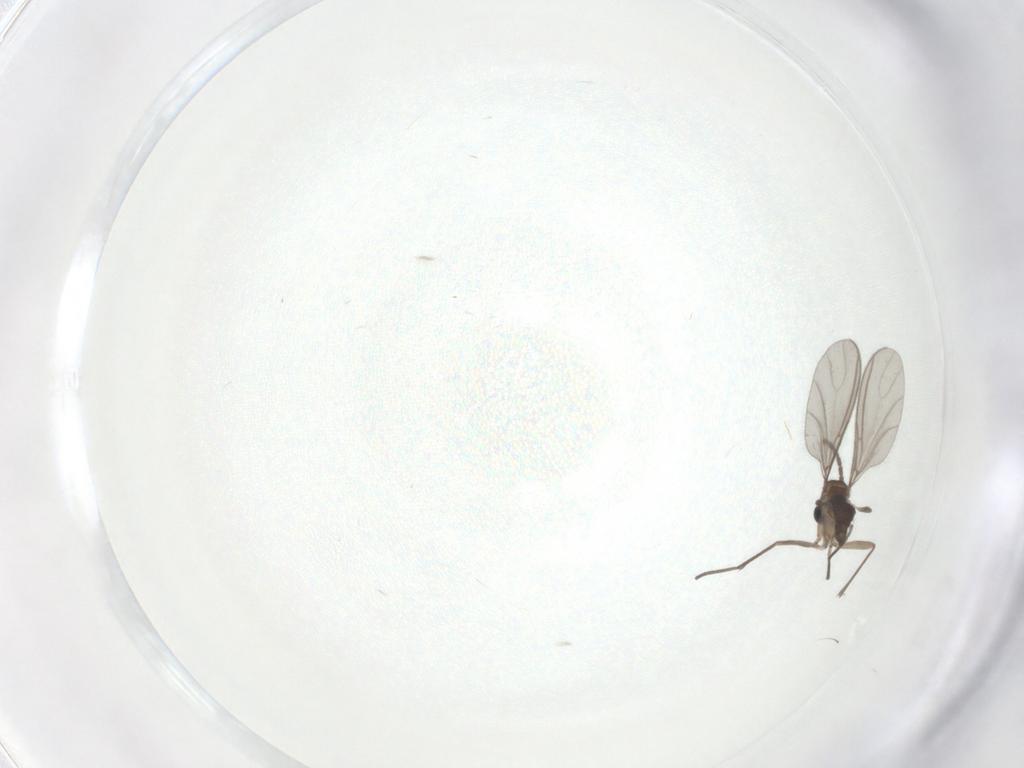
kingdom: Animalia
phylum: Arthropoda
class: Insecta
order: Diptera
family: Sciaridae
